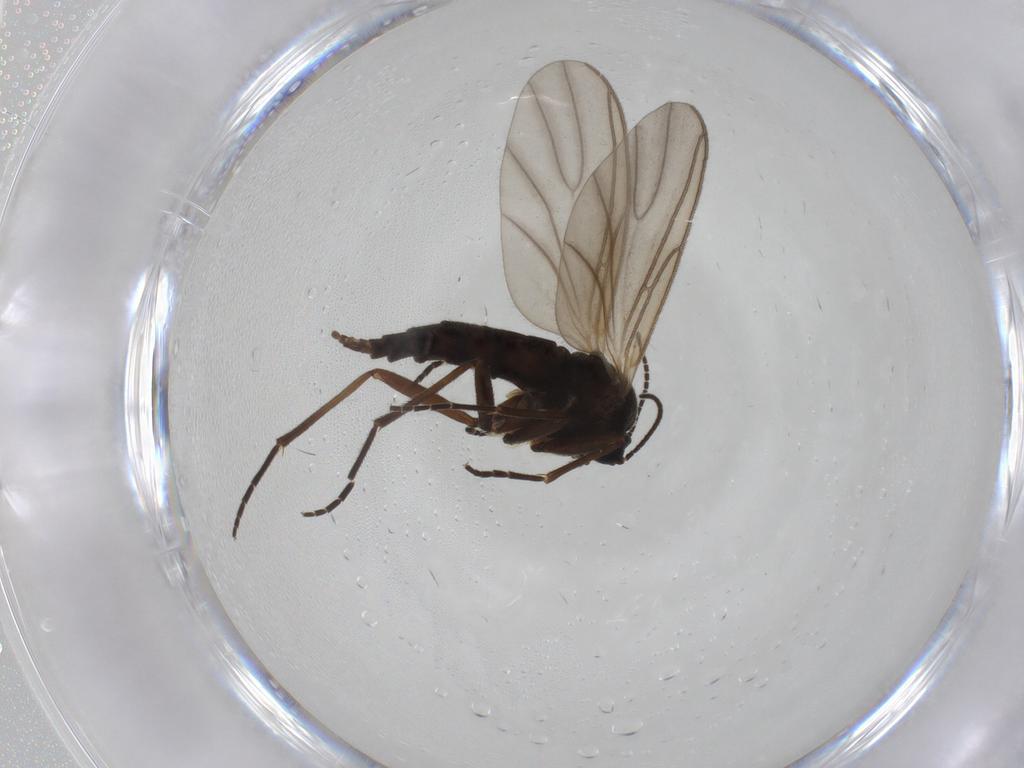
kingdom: Animalia
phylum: Arthropoda
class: Insecta
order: Diptera
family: Sciaridae
